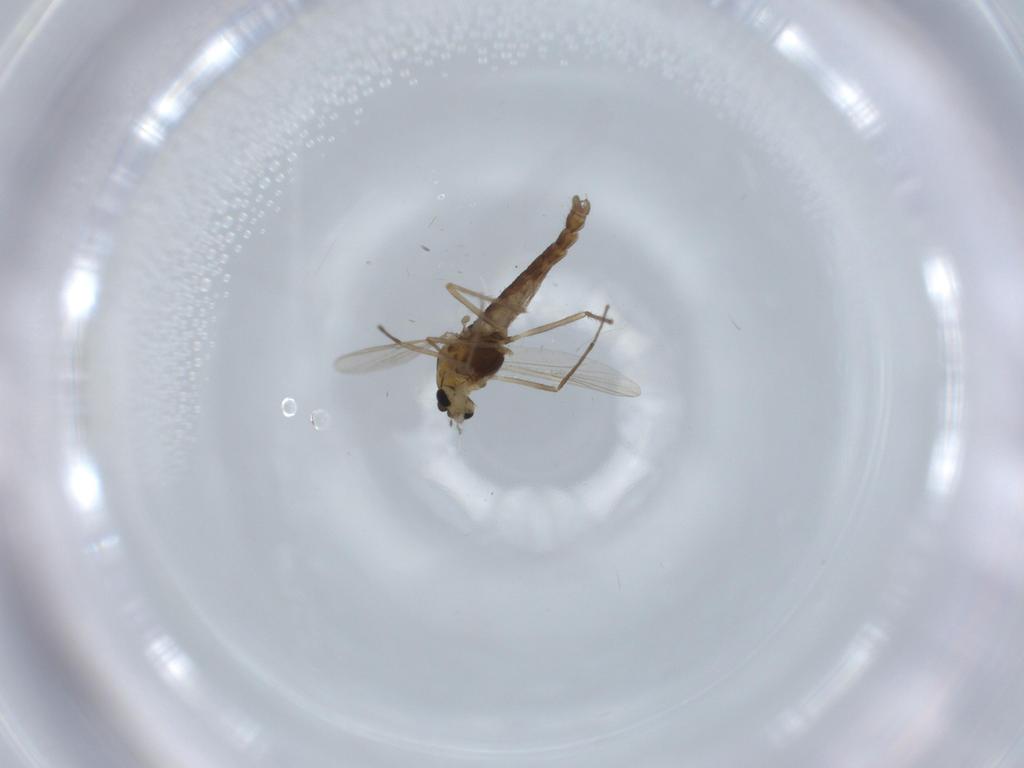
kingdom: Animalia
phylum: Arthropoda
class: Insecta
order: Diptera
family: Chironomidae
